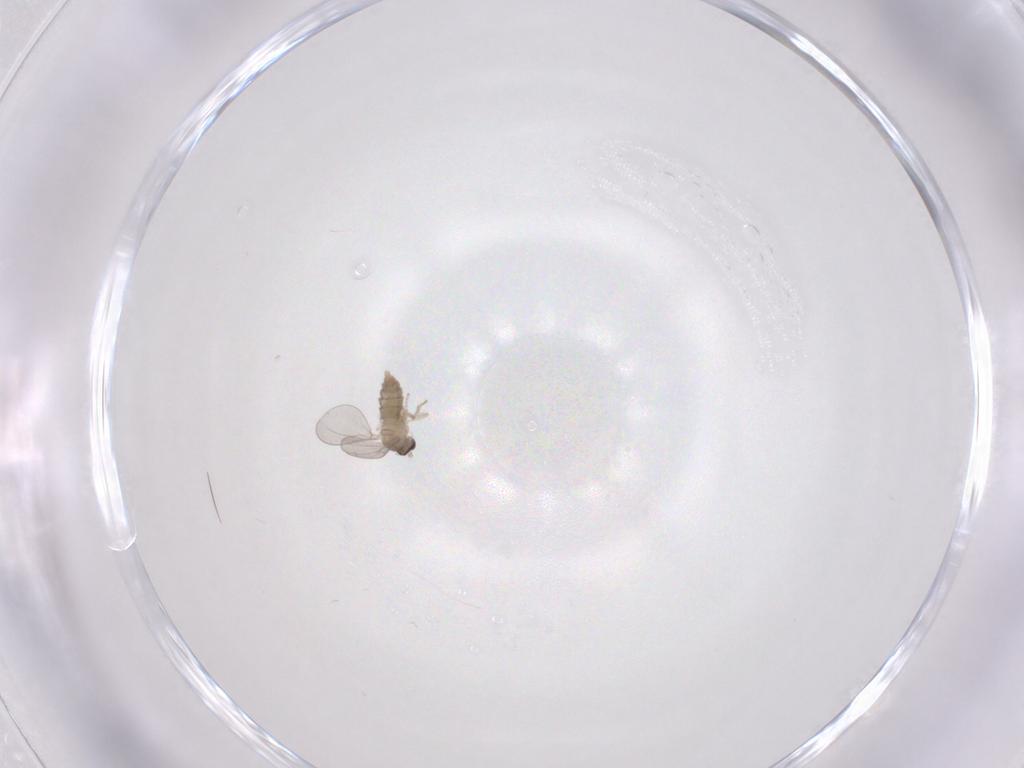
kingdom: Animalia
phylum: Arthropoda
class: Insecta
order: Diptera
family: Cecidomyiidae
